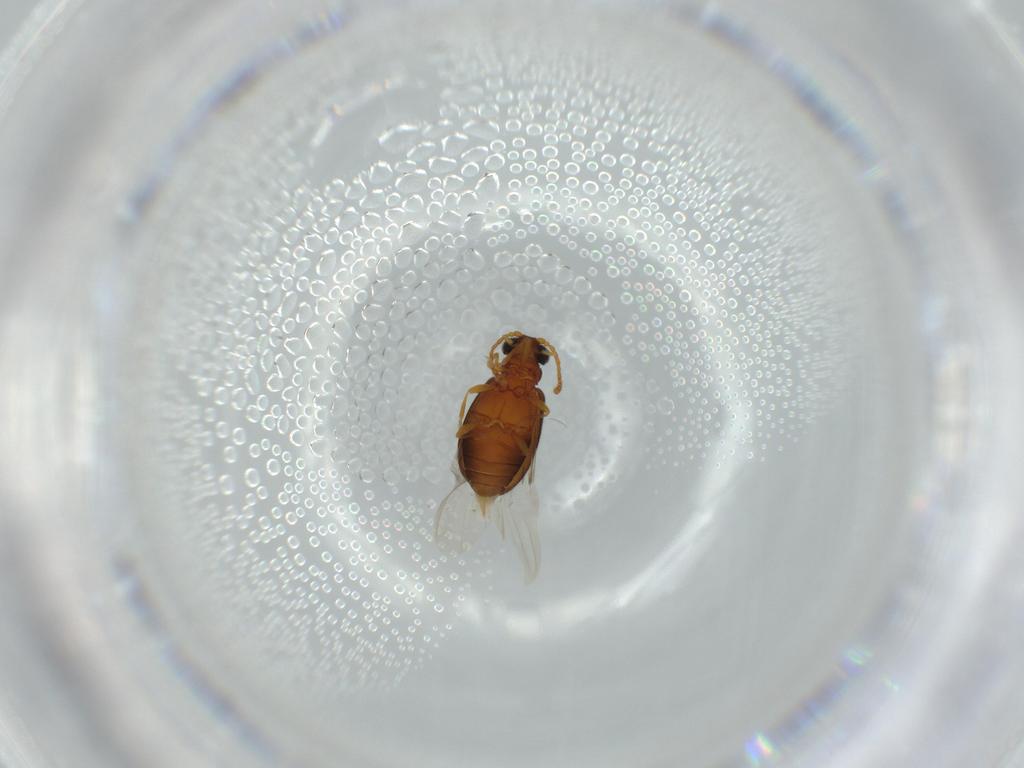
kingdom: Animalia
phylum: Arthropoda
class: Insecta
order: Coleoptera
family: Aderidae
